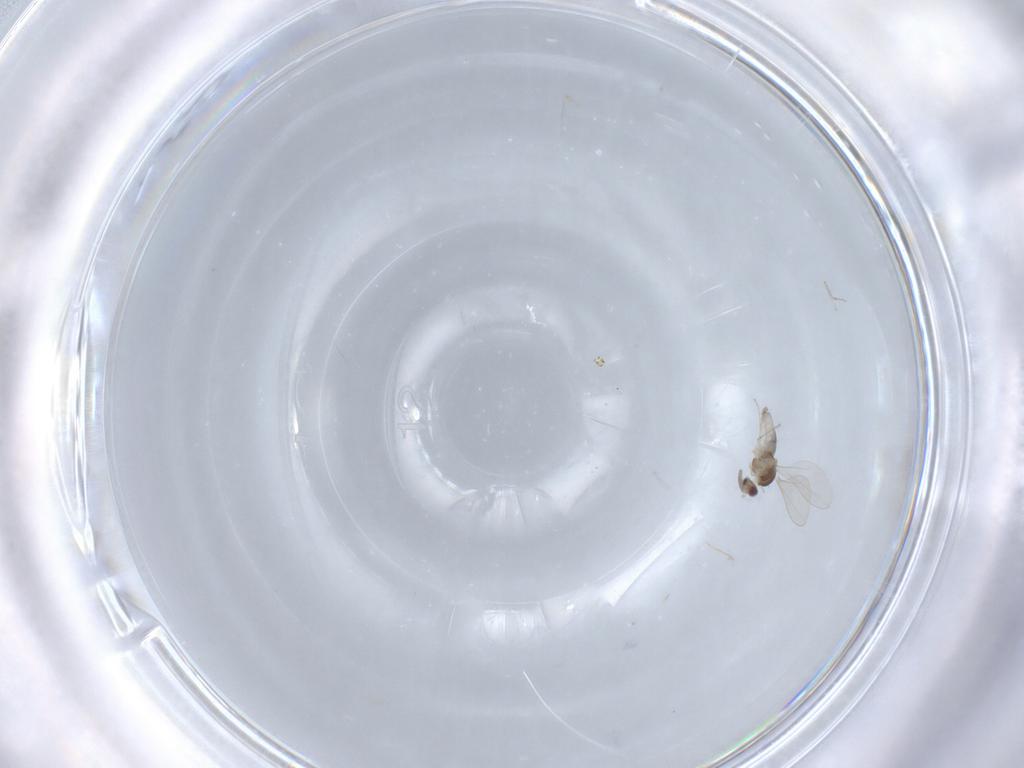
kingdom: Animalia
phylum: Arthropoda
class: Insecta
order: Diptera
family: Cecidomyiidae
